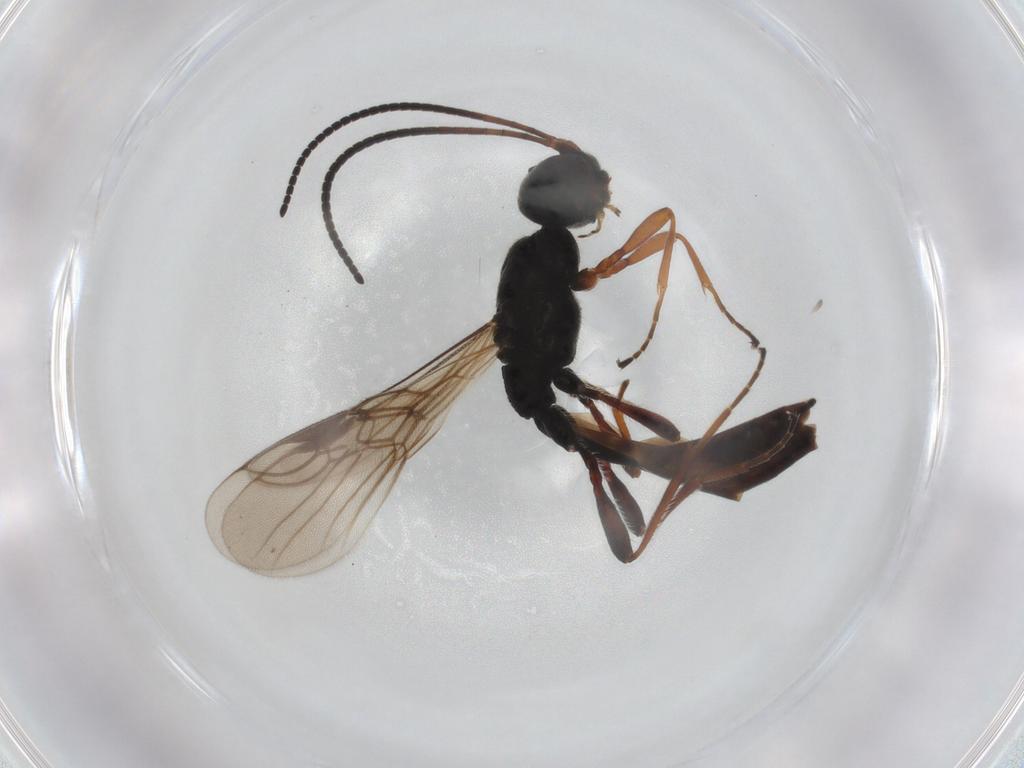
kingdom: Animalia
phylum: Arthropoda
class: Insecta
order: Hymenoptera
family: Braconidae
